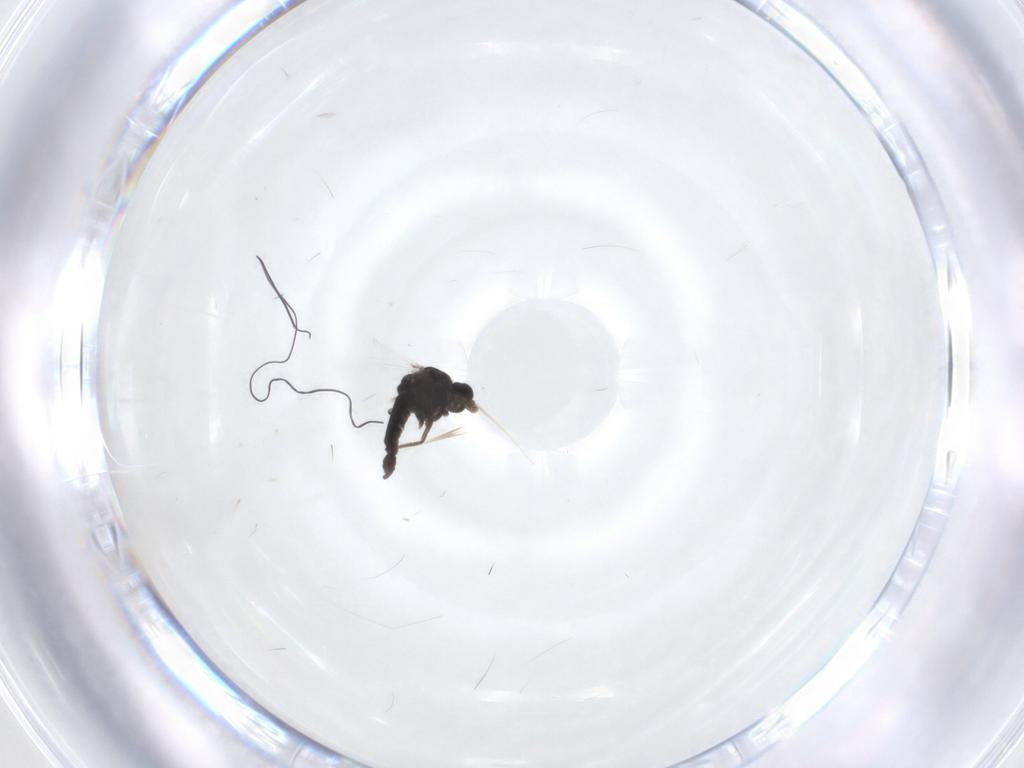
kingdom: Animalia
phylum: Arthropoda
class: Insecta
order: Diptera
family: Chironomidae
